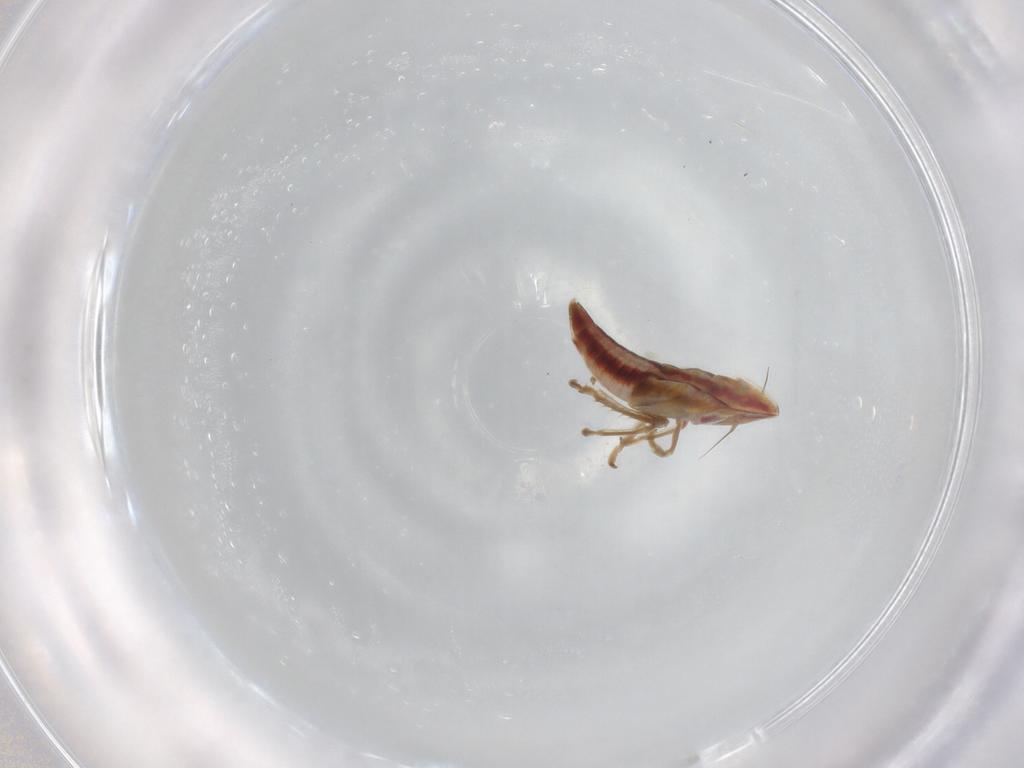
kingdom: Animalia
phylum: Arthropoda
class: Insecta
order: Hemiptera
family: Cicadellidae
